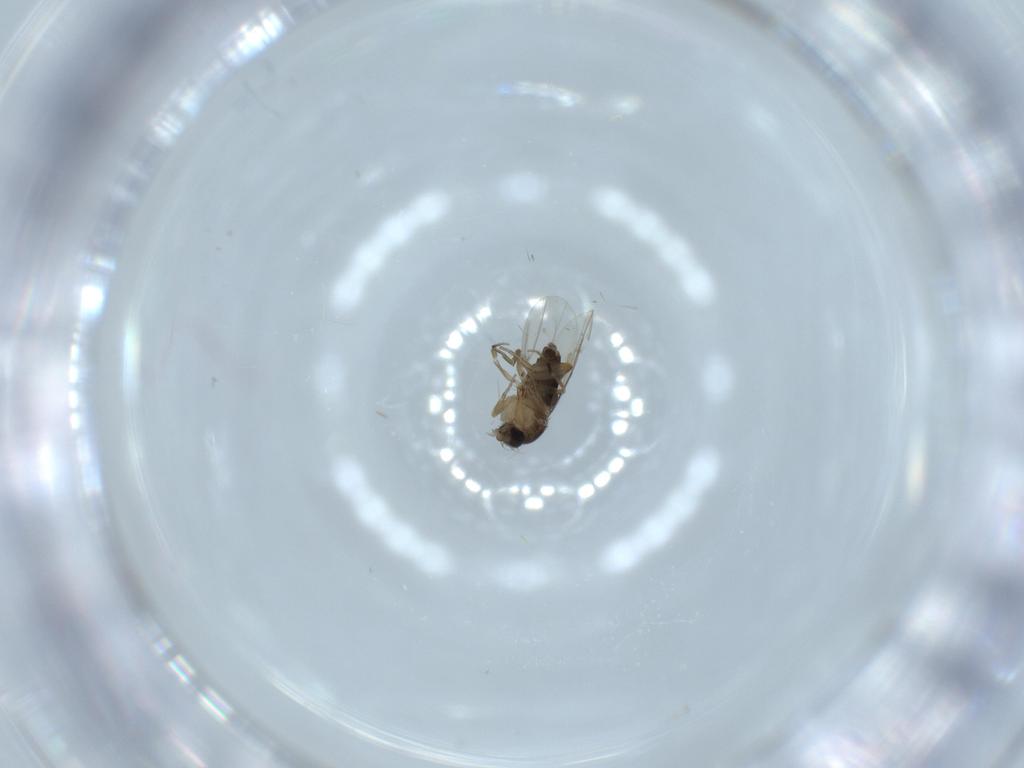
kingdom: Animalia
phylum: Arthropoda
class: Insecta
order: Diptera
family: Phoridae
